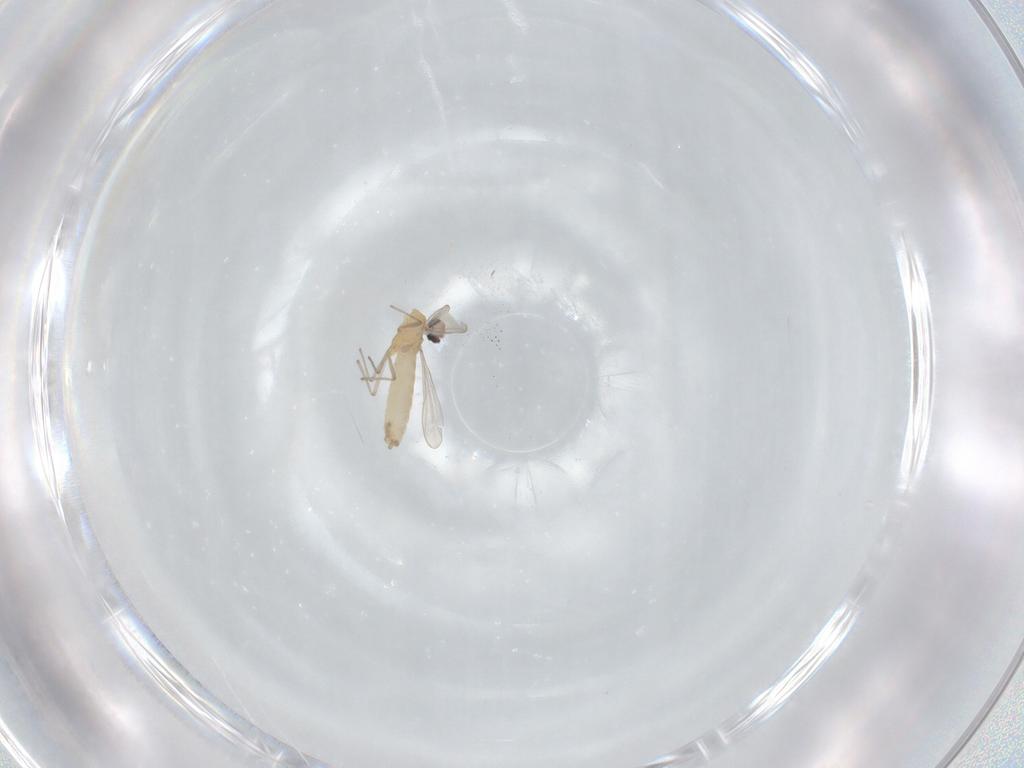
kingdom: Animalia
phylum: Arthropoda
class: Insecta
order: Diptera
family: Chironomidae
